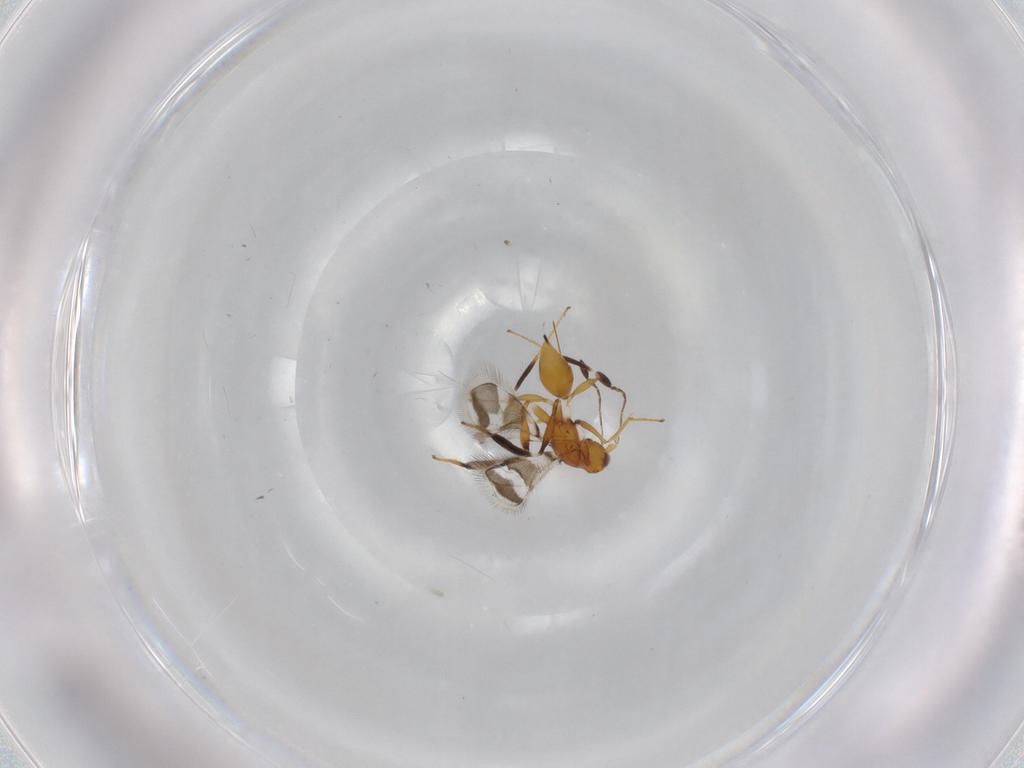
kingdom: Animalia
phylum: Arthropoda
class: Insecta
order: Hymenoptera
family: Mymaridae
